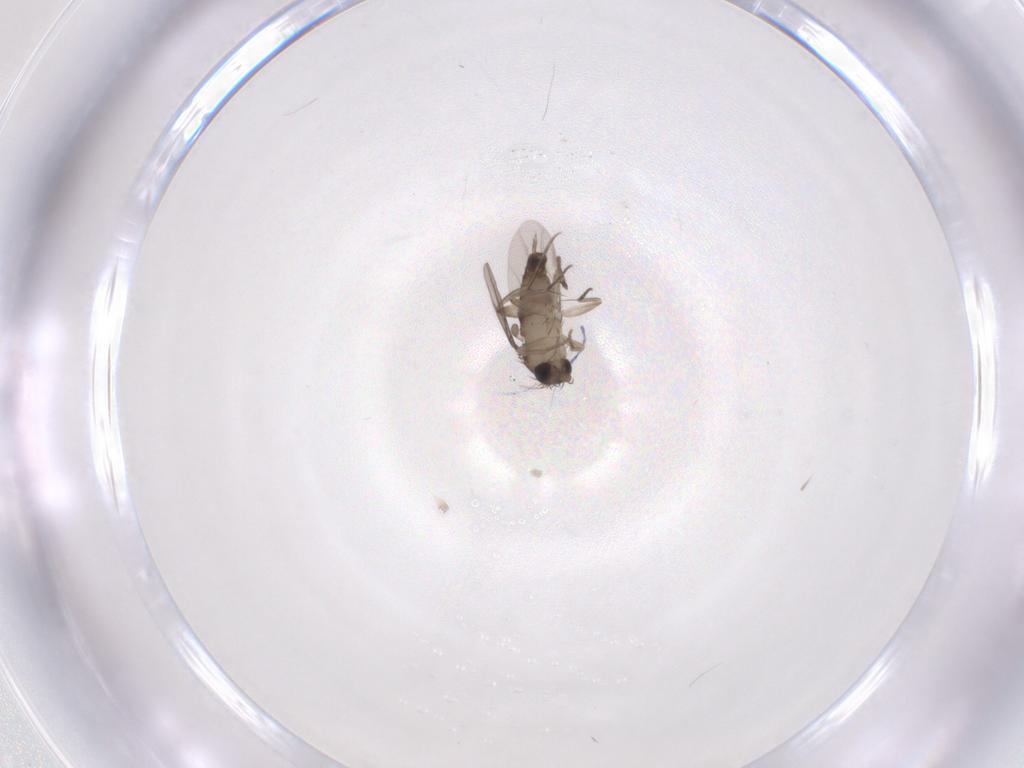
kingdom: Animalia
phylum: Arthropoda
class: Insecta
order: Diptera
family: Phoridae
